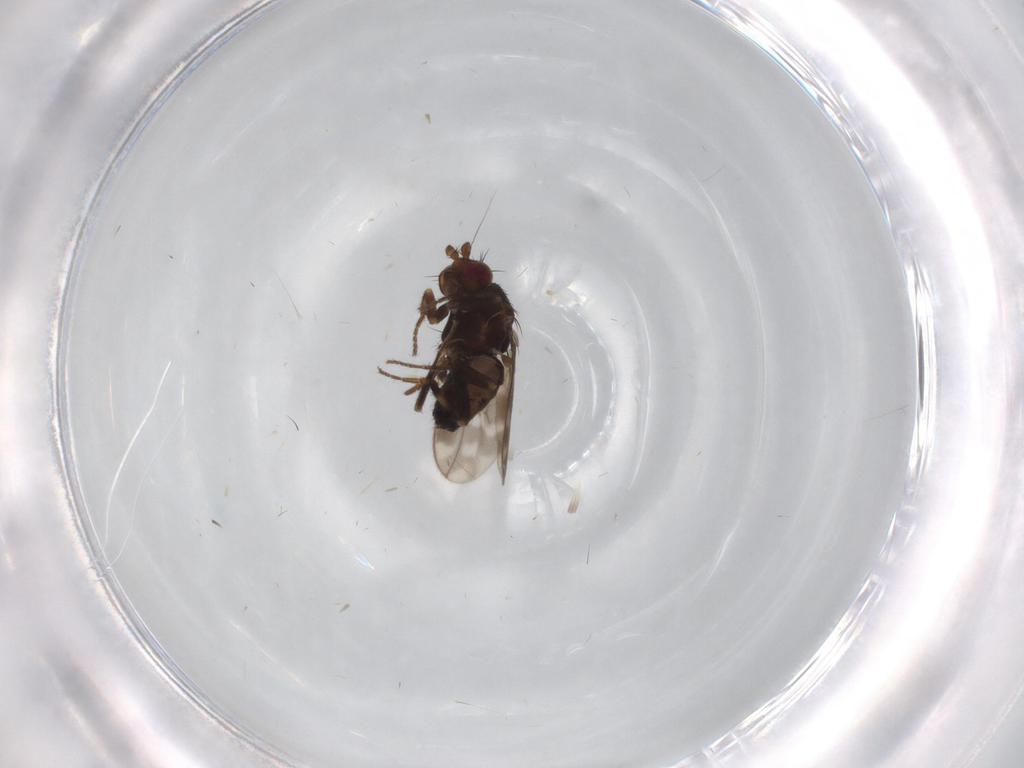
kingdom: Animalia
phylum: Arthropoda
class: Insecta
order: Diptera
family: Sphaeroceridae
